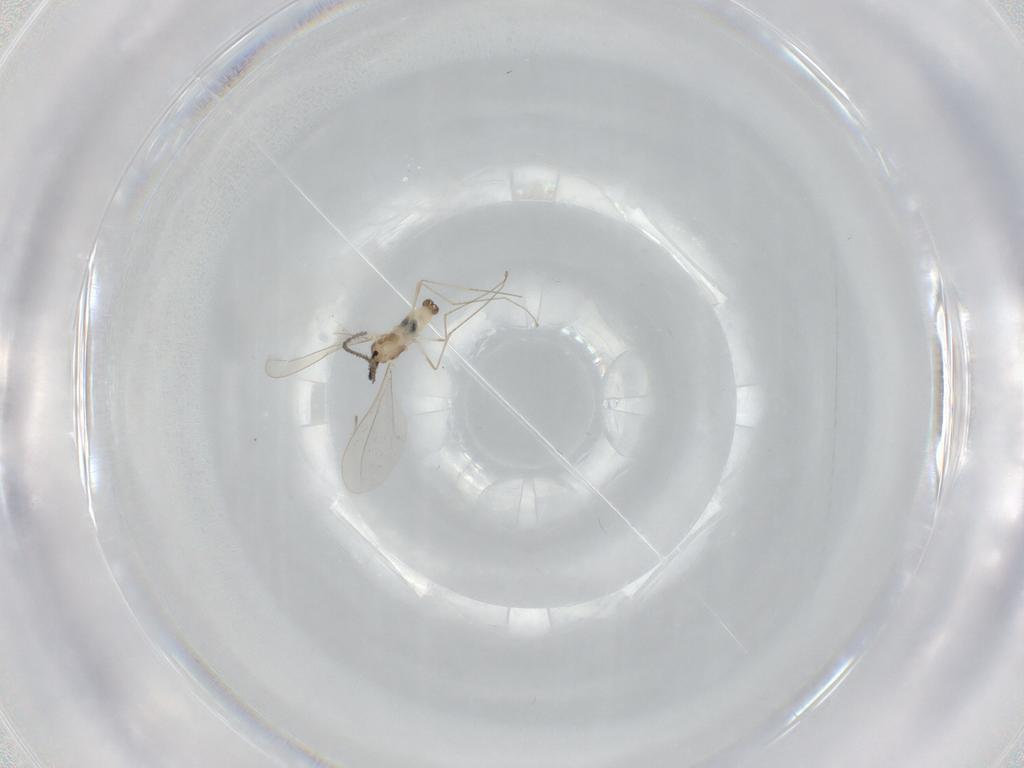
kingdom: Animalia
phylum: Arthropoda
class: Insecta
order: Diptera
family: Cecidomyiidae
